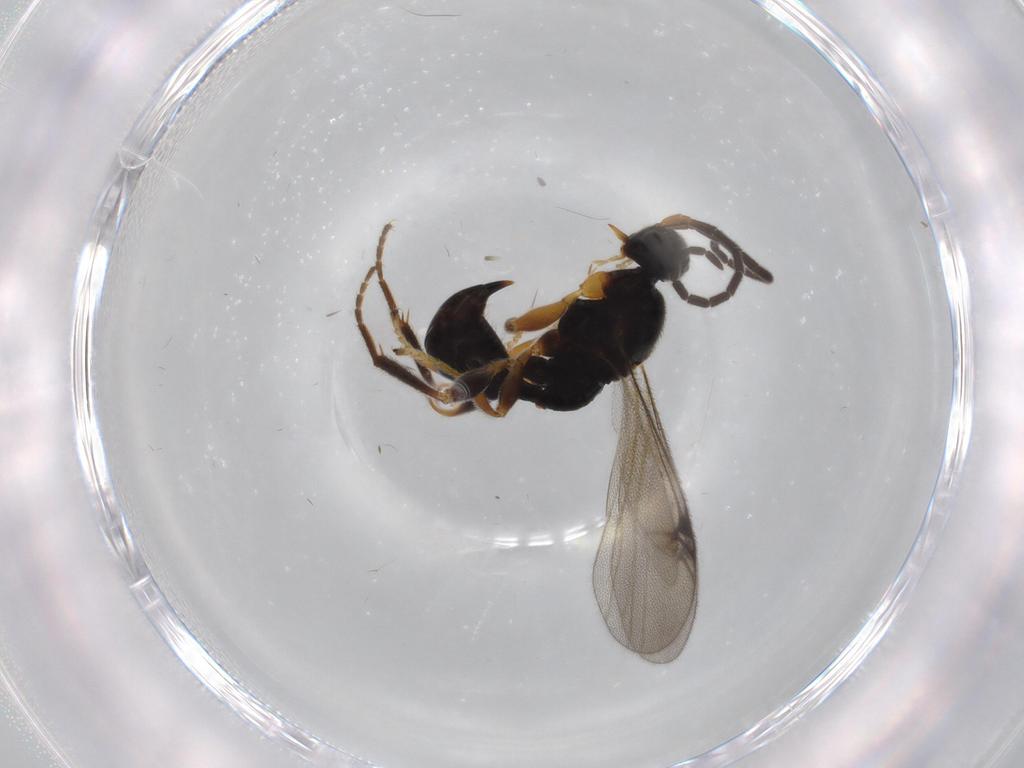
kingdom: Animalia
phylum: Arthropoda
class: Insecta
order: Hymenoptera
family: Proctotrupidae
